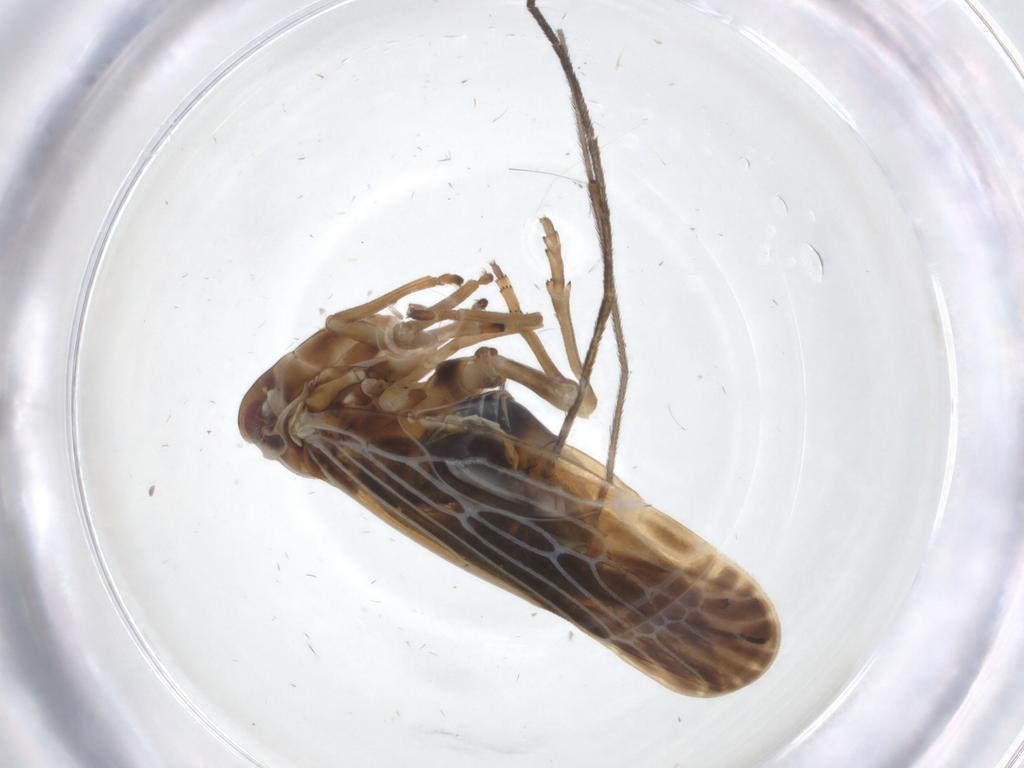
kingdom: Animalia
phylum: Arthropoda
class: Insecta
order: Hemiptera
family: Derbidae
